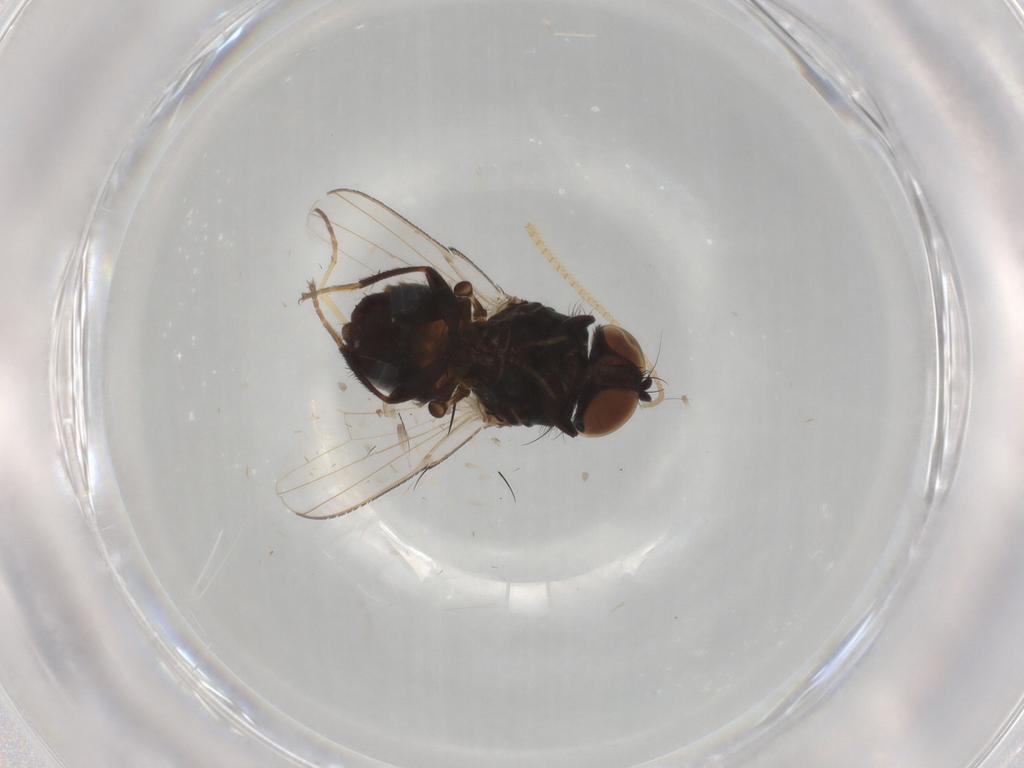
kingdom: Animalia
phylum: Arthropoda
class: Insecta
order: Diptera
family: Dolichopodidae
